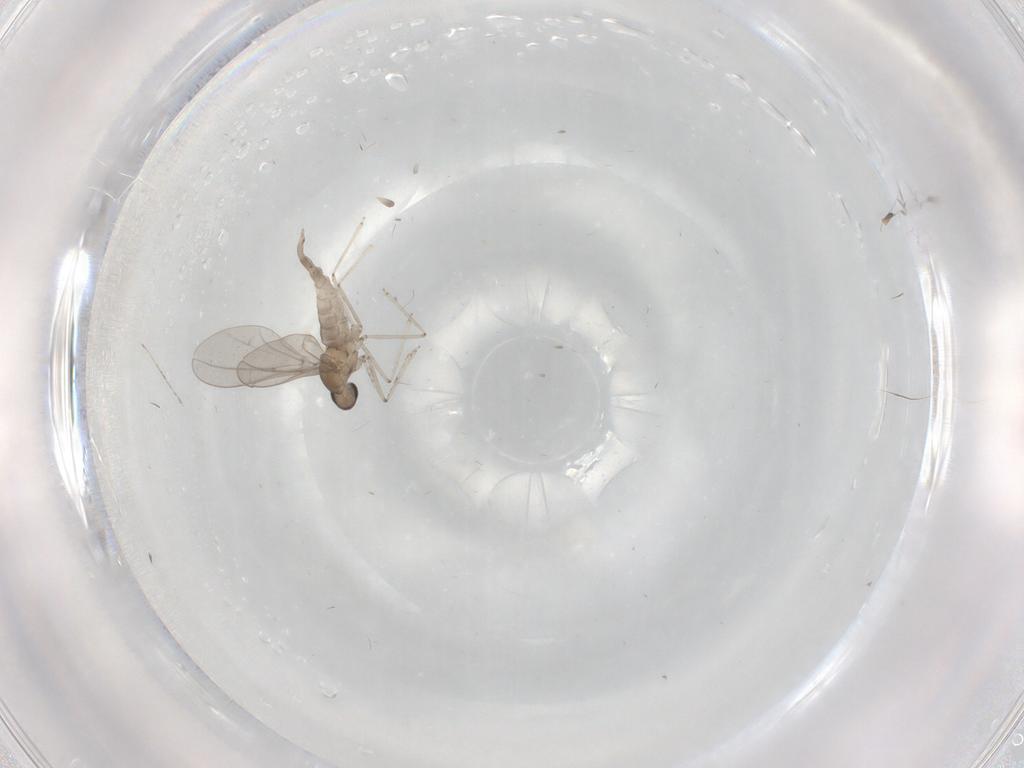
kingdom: Animalia
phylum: Arthropoda
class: Insecta
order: Diptera
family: Cecidomyiidae
